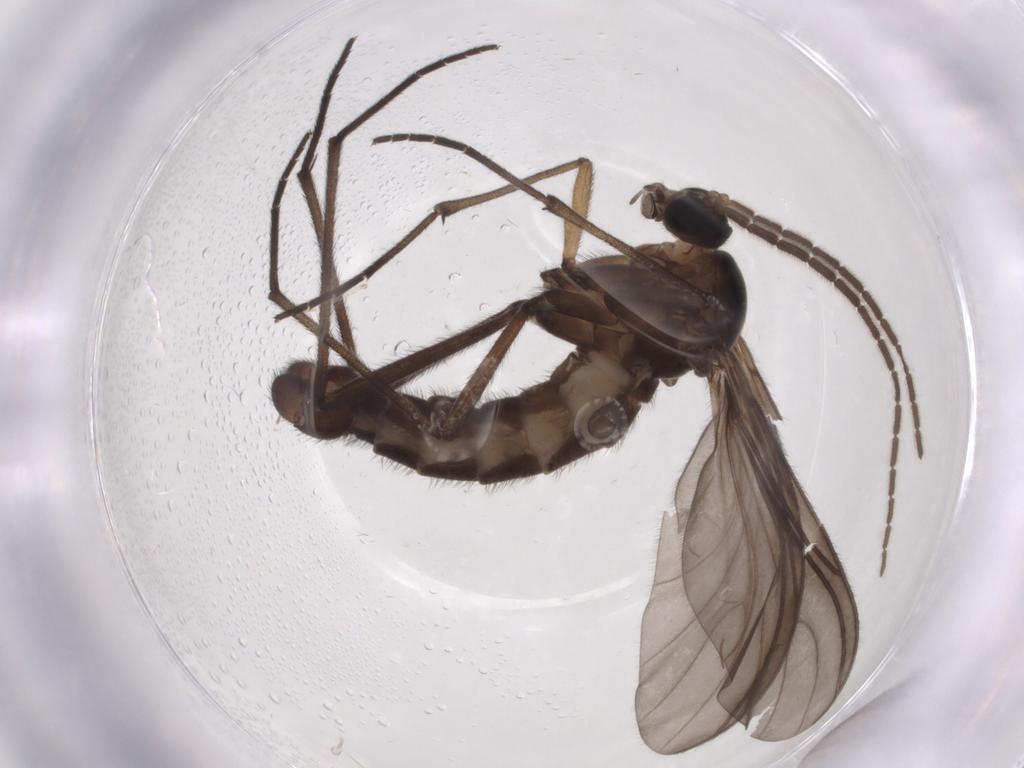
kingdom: Animalia
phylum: Arthropoda
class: Insecta
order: Diptera
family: Sciaridae
